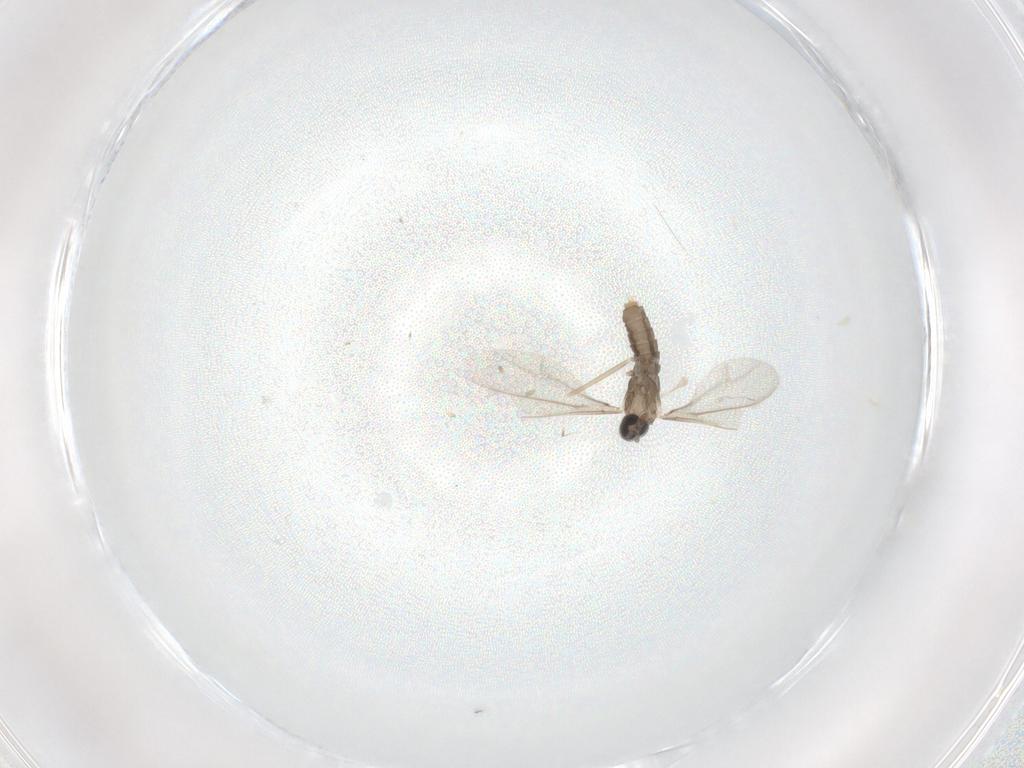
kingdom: Animalia
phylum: Arthropoda
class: Insecta
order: Diptera
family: Cecidomyiidae
